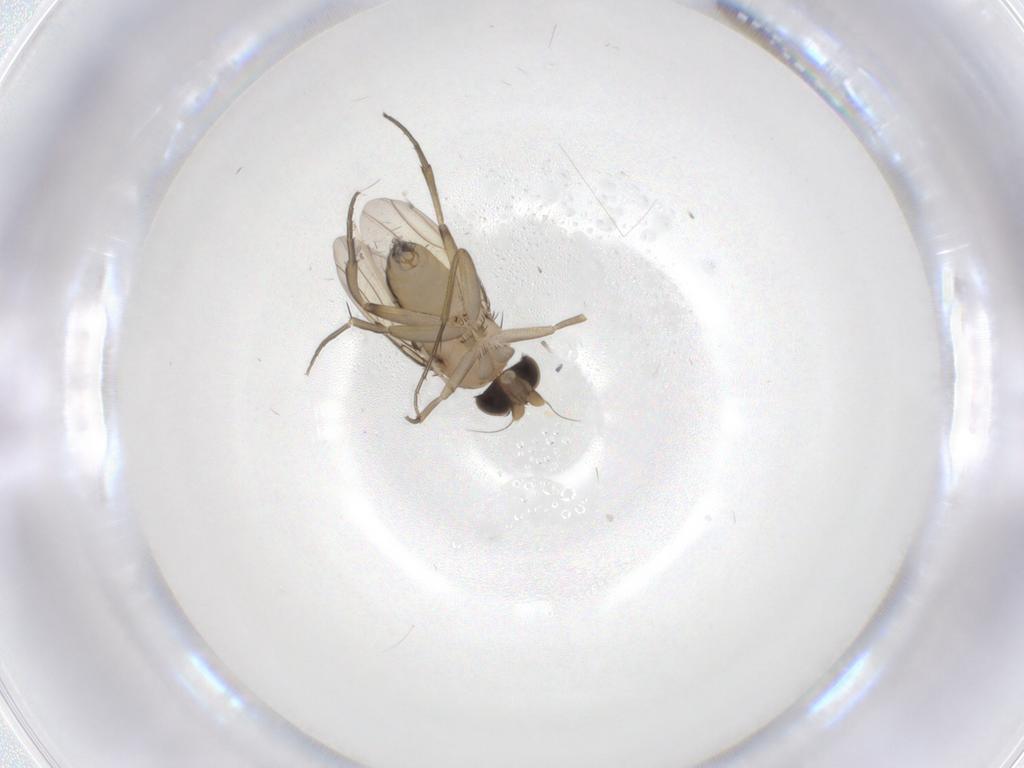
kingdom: Animalia
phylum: Arthropoda
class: Insecta
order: Diptera
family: Phoridae
